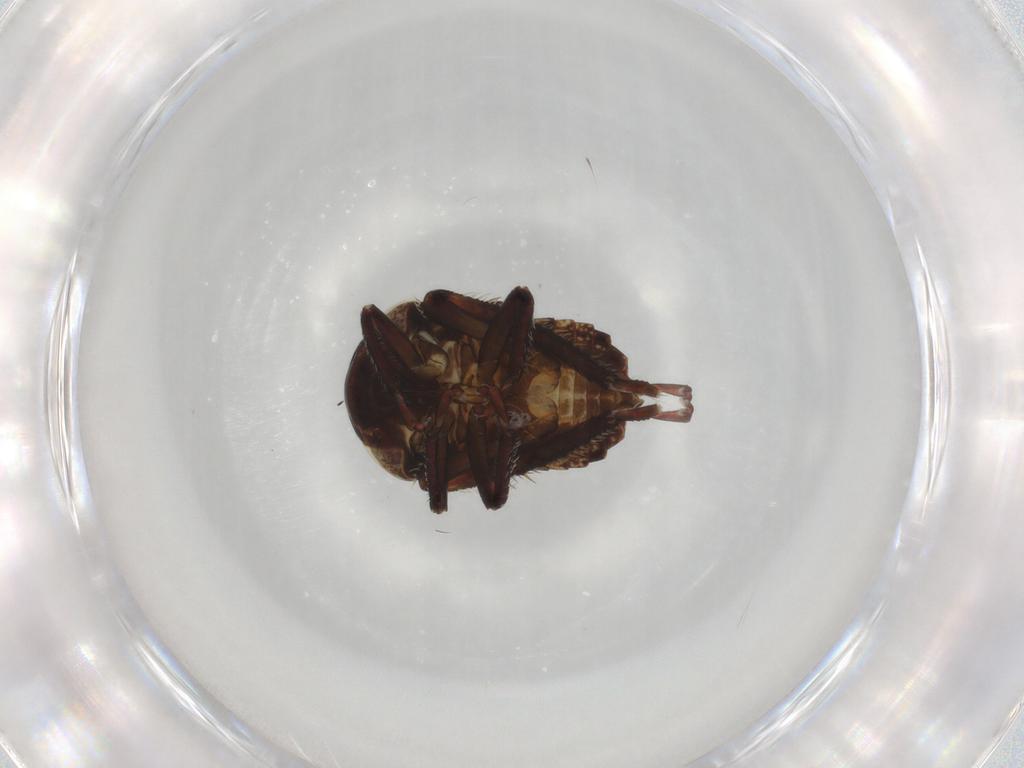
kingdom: Animalia
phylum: Arthropoda
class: Insecta
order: Hemiptera
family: Cicadellidae
